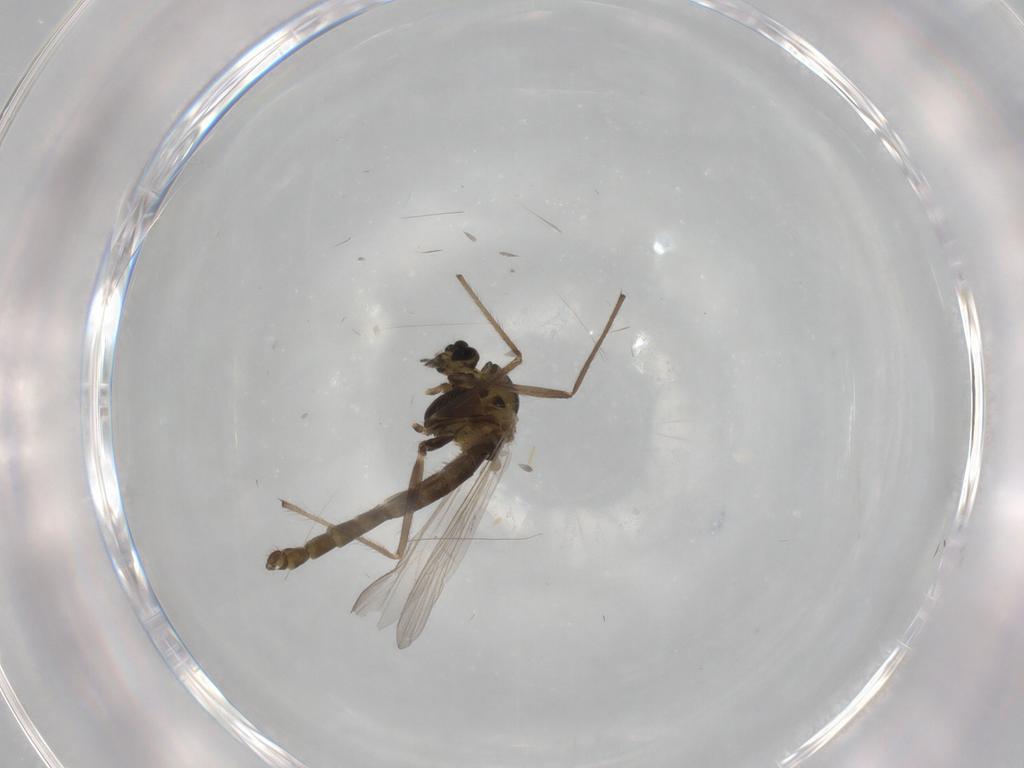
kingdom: Animalia
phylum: Arthropoda
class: Insecta
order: Diptera
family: Chironomidae
